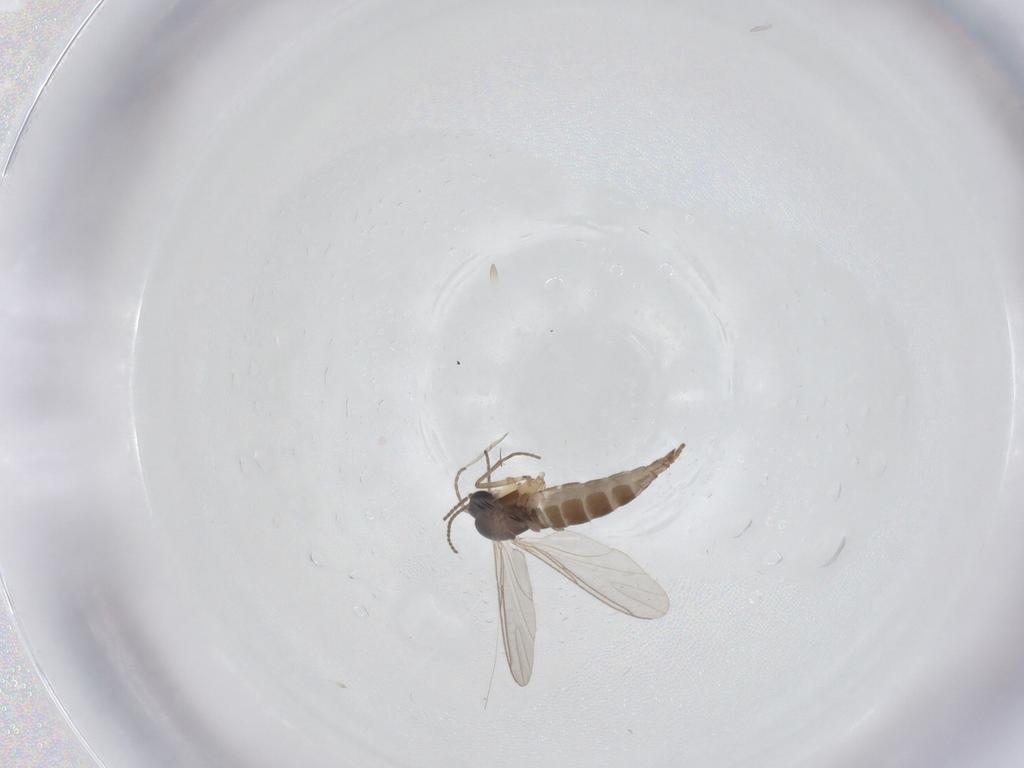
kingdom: Animalia
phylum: Arthropoda
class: Insecta
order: Diptera
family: Sciaridae
